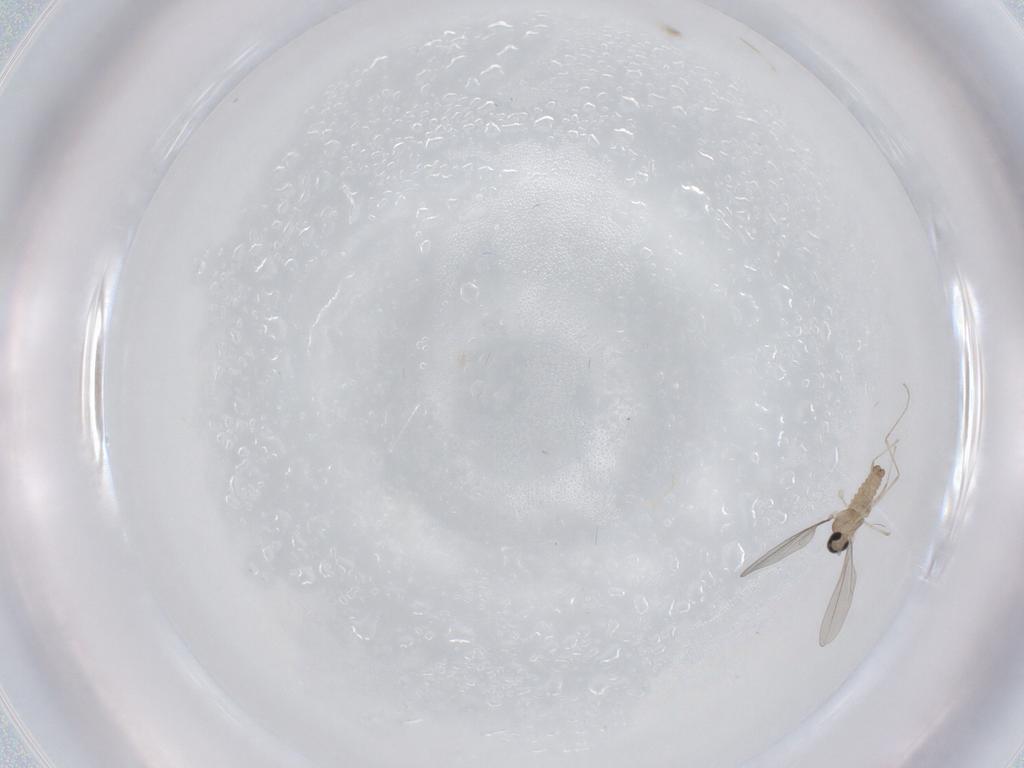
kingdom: Animalia
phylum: Arthropoda
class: Insecta
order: Diptera
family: Cecidomyiidae
